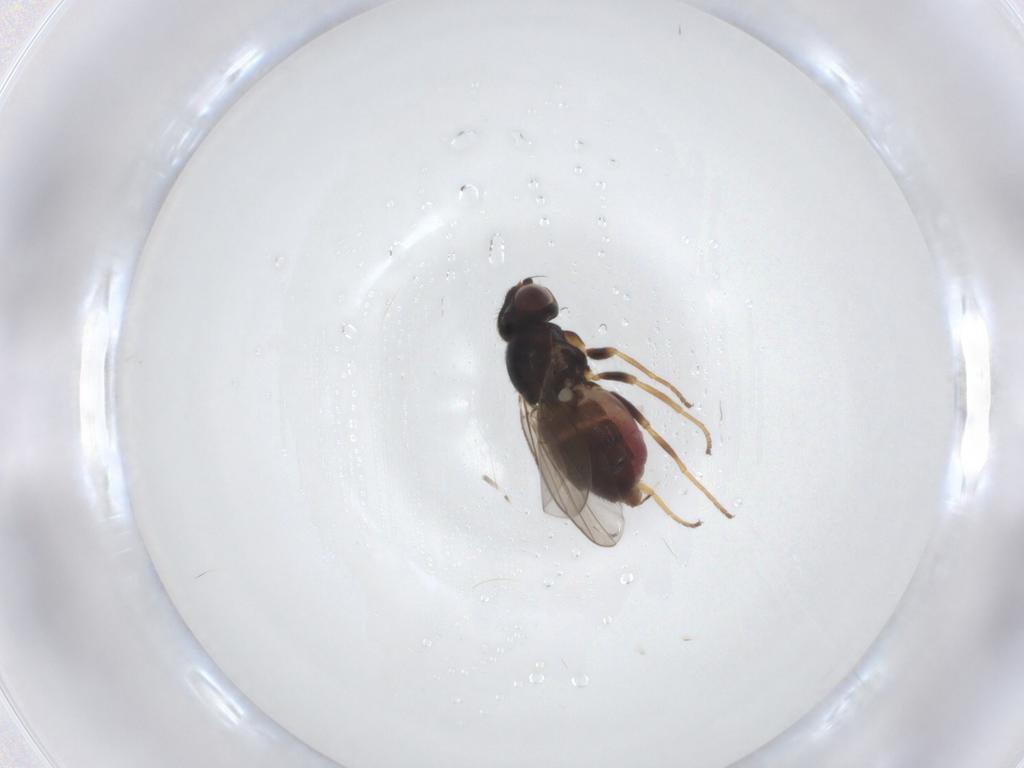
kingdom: Animalia
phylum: Arthropoda
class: Insecta
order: Diptera
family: Chloropidae
